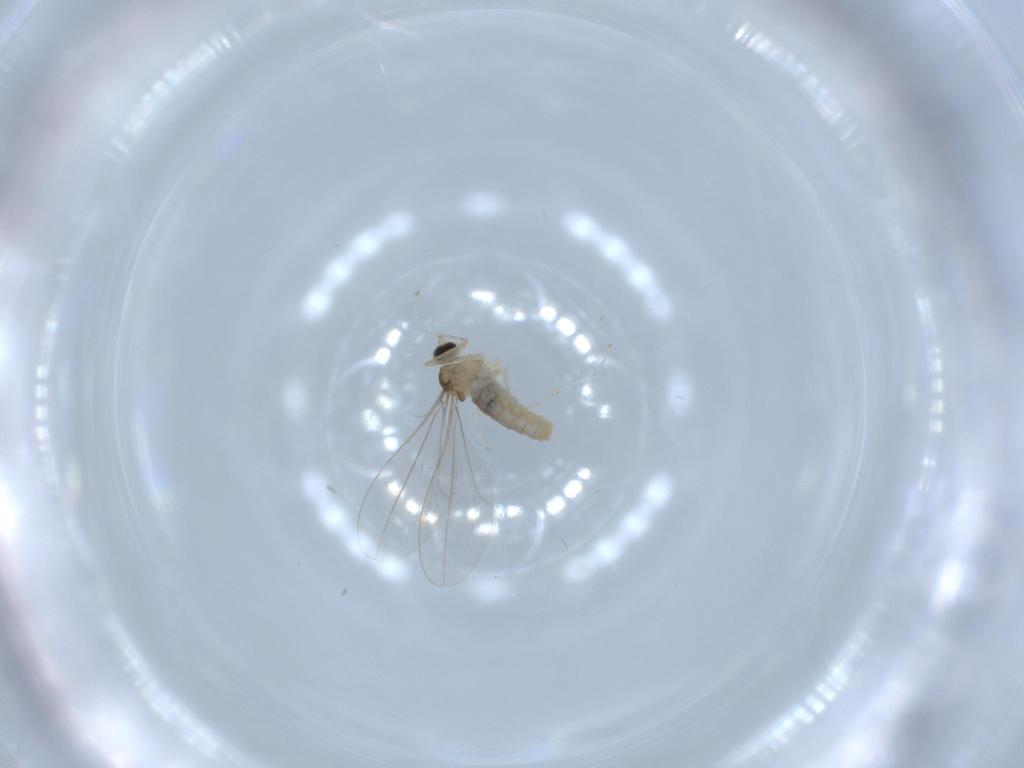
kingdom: Animalia
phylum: Arthropoda
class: Insecta
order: Diptera
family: Cecidomyiidae
